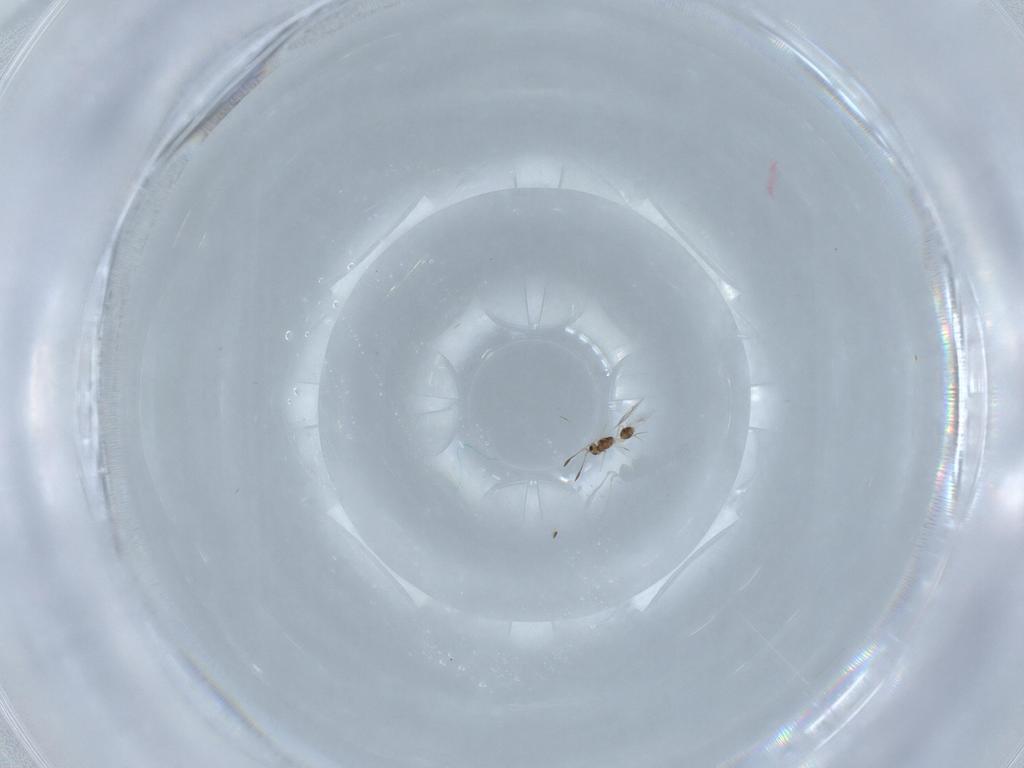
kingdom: Animalia
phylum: Arthropoda
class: Insecta
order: Hymenoptera
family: Mymarommatidae
